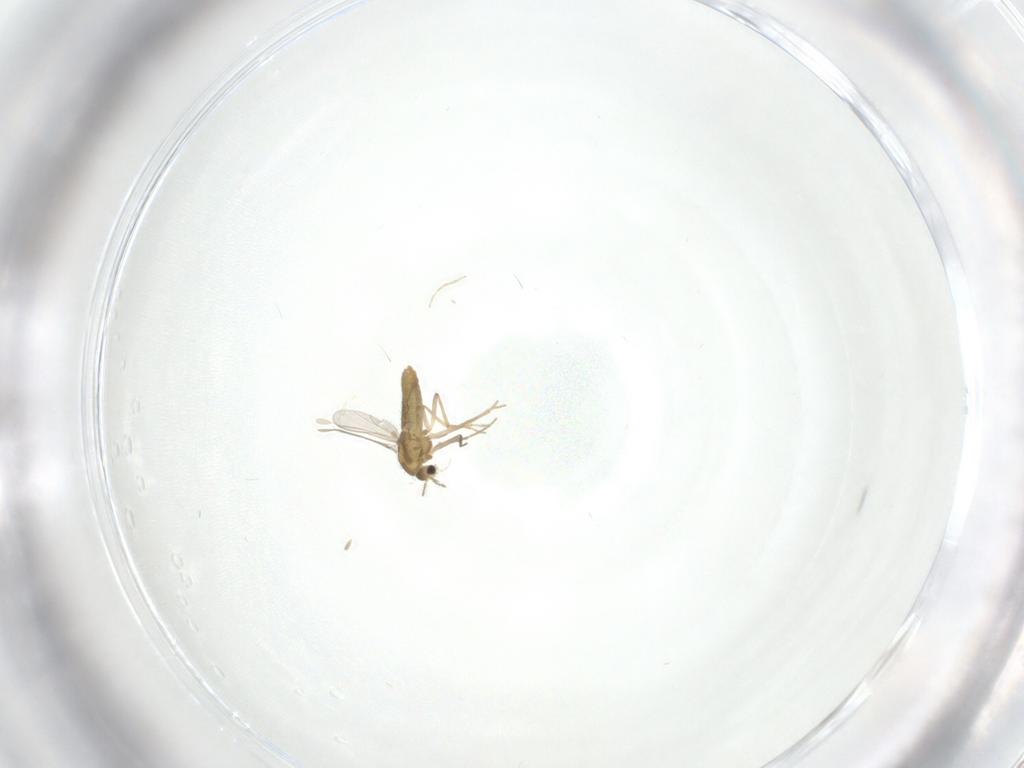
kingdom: Animalia
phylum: Arthropoda
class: Insecta
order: Diptera
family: Chironomidae
